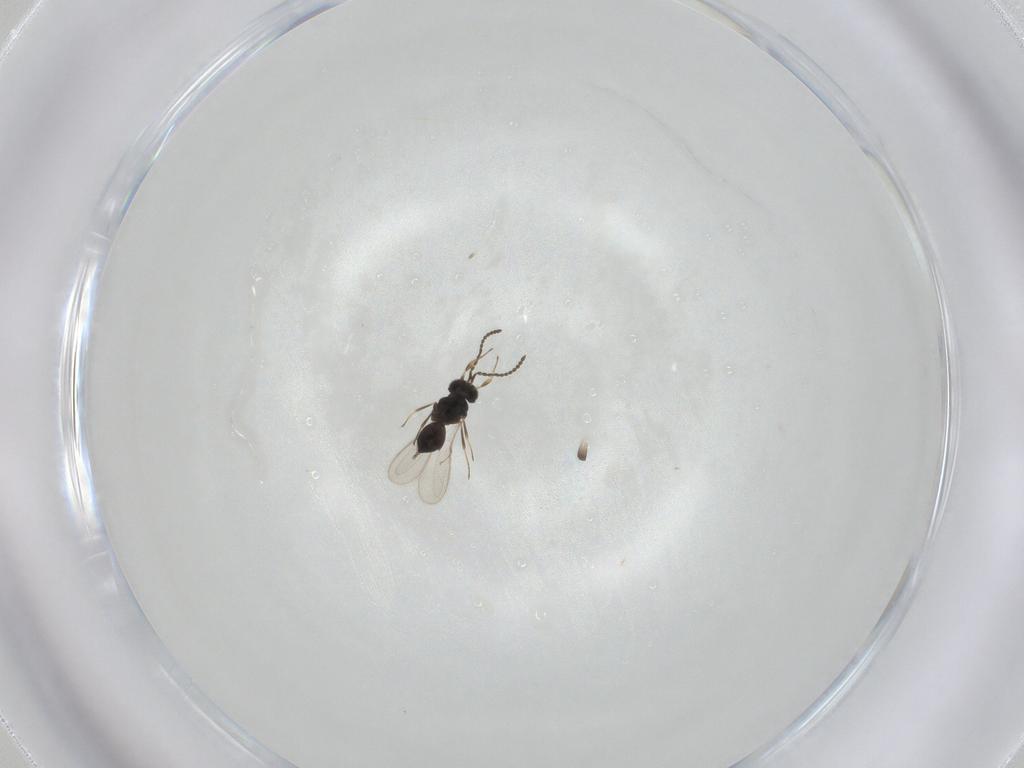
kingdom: Animalia
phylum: Arthropoda
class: Insecta
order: Hymenoptera
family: Scelionidae
